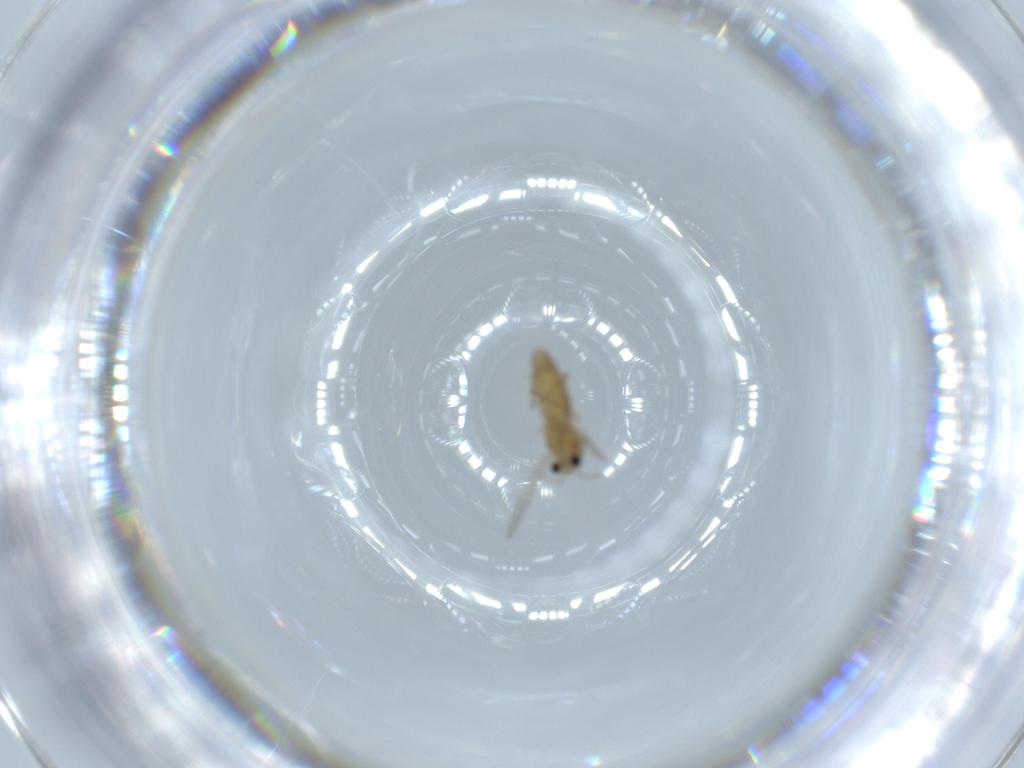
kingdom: Animalia
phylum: Arthropoda
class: Insecta
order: Diptera
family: Chironomidae
